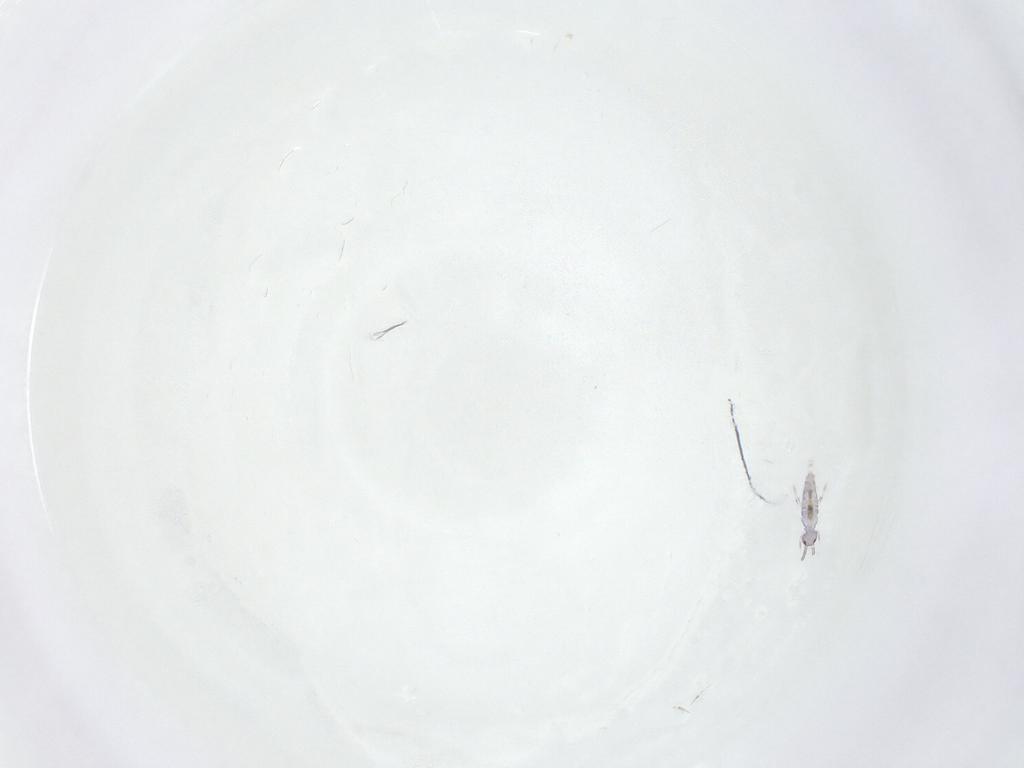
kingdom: Animalia
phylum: Arthropoda
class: Collembola
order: Entomobryomorpha
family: Entomobryidae
